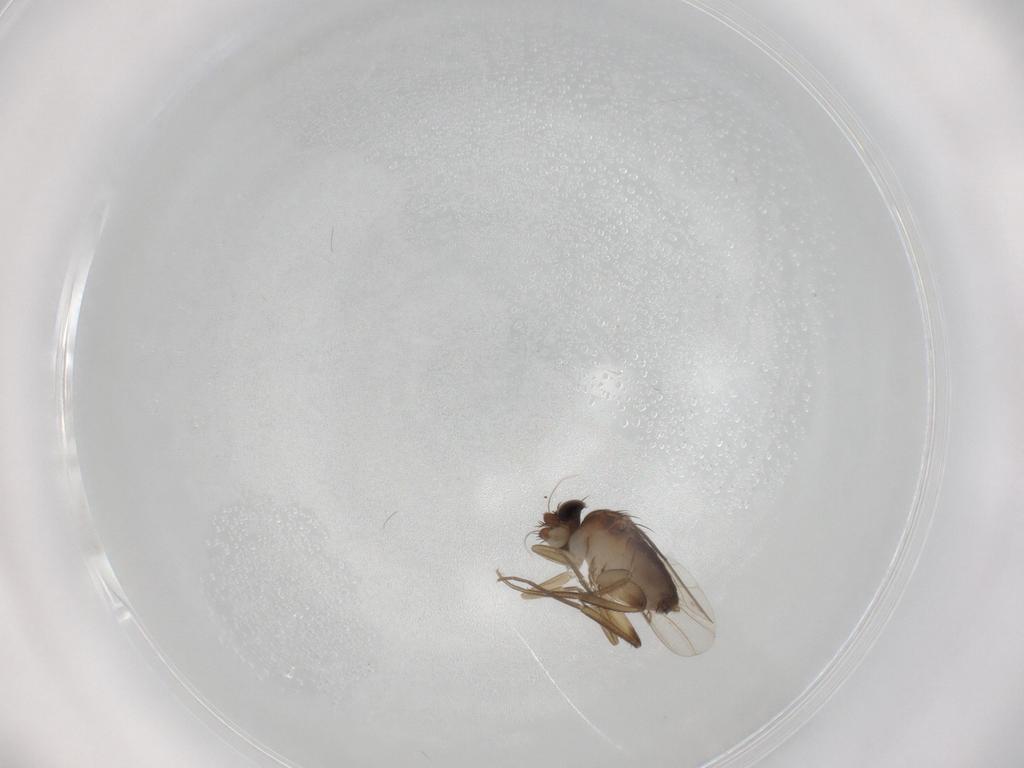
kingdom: Animalia
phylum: Arthropoda
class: Insecta
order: Diptera
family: Phoridae
